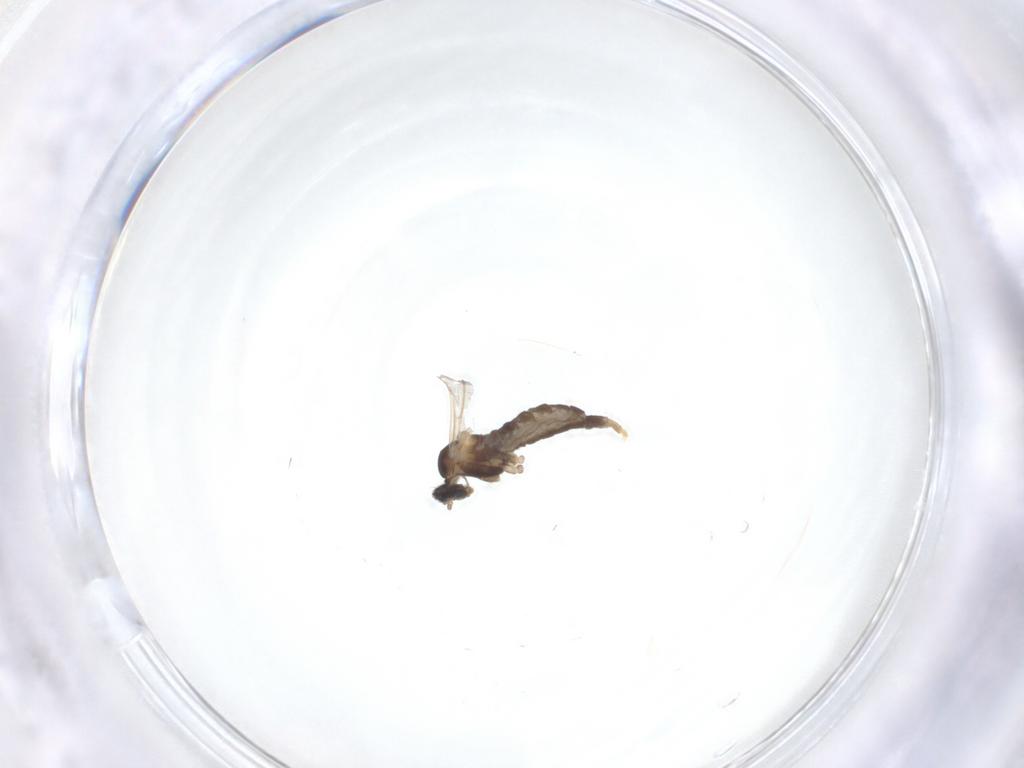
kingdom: Animalia
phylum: Arthropoda
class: Insecta
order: Diptera
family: Cecidomyiidae
